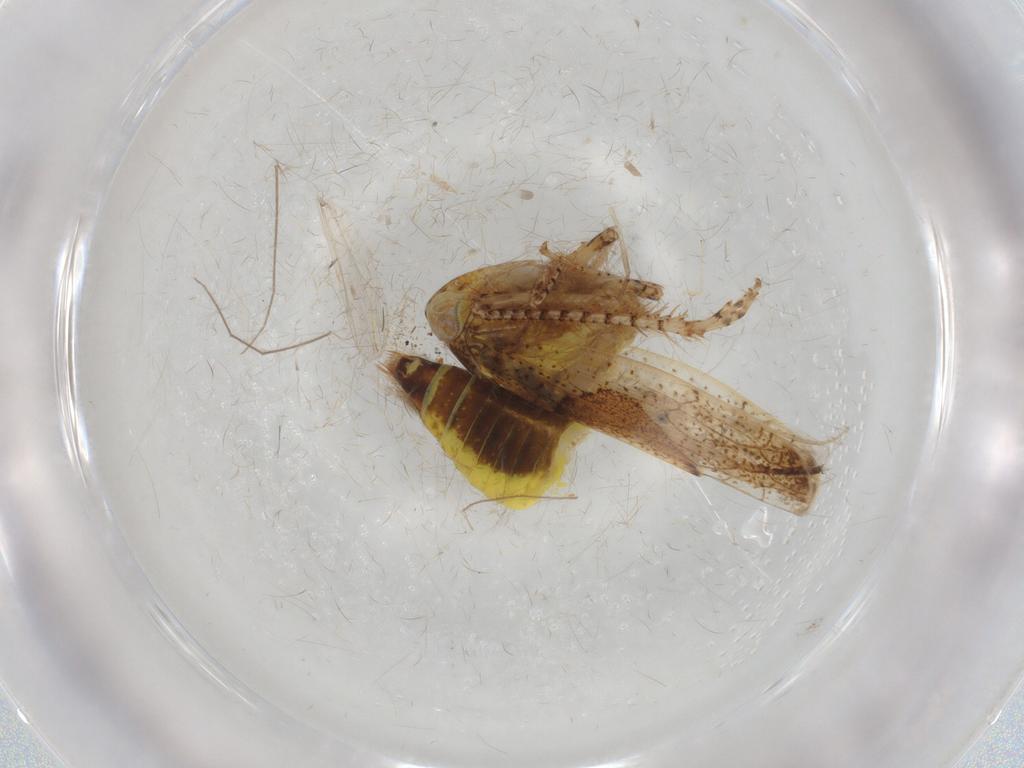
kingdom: Animalia
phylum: Arthropoda
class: Insecta
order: Hemiptera
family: Cicadellidae
